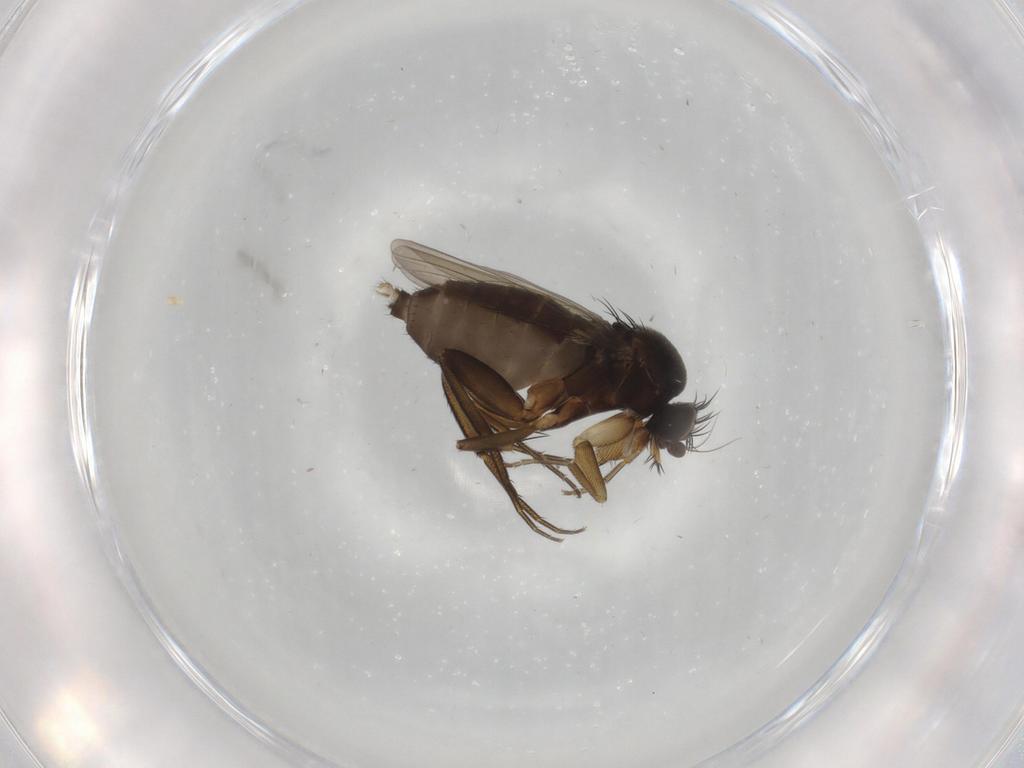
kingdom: Animalia
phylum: Arthropoda
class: Insecta
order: Diptera
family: Phoridae
